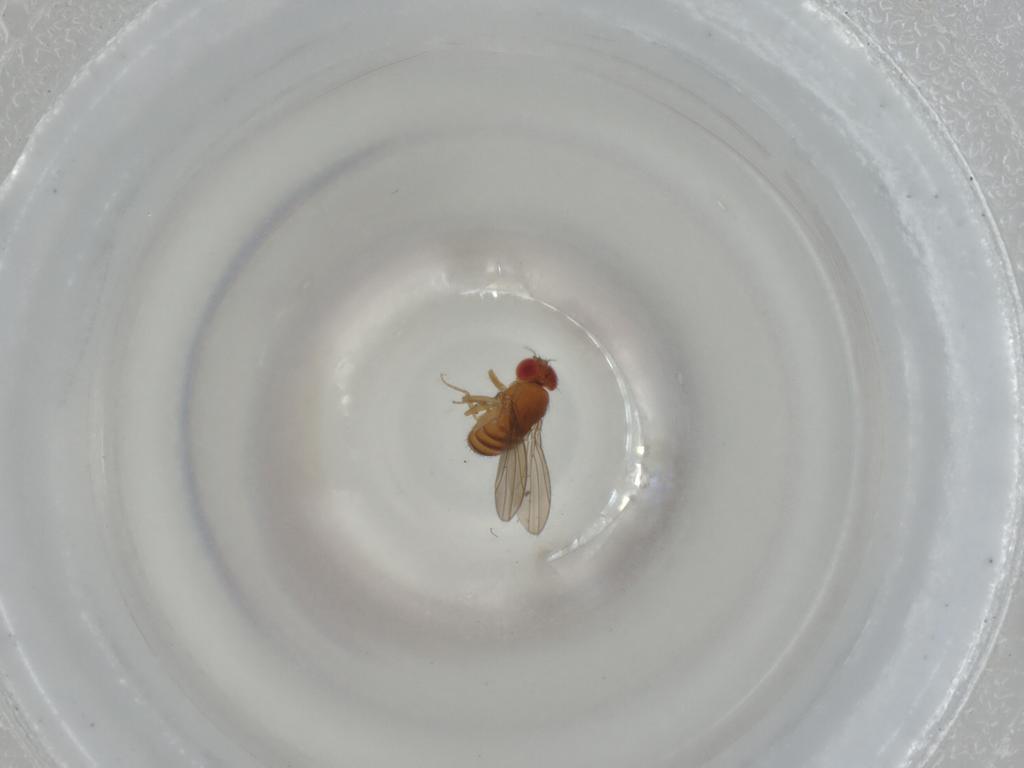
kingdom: Animalia
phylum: Arthropoda
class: Insecta
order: Diptera
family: Drosophilidae
